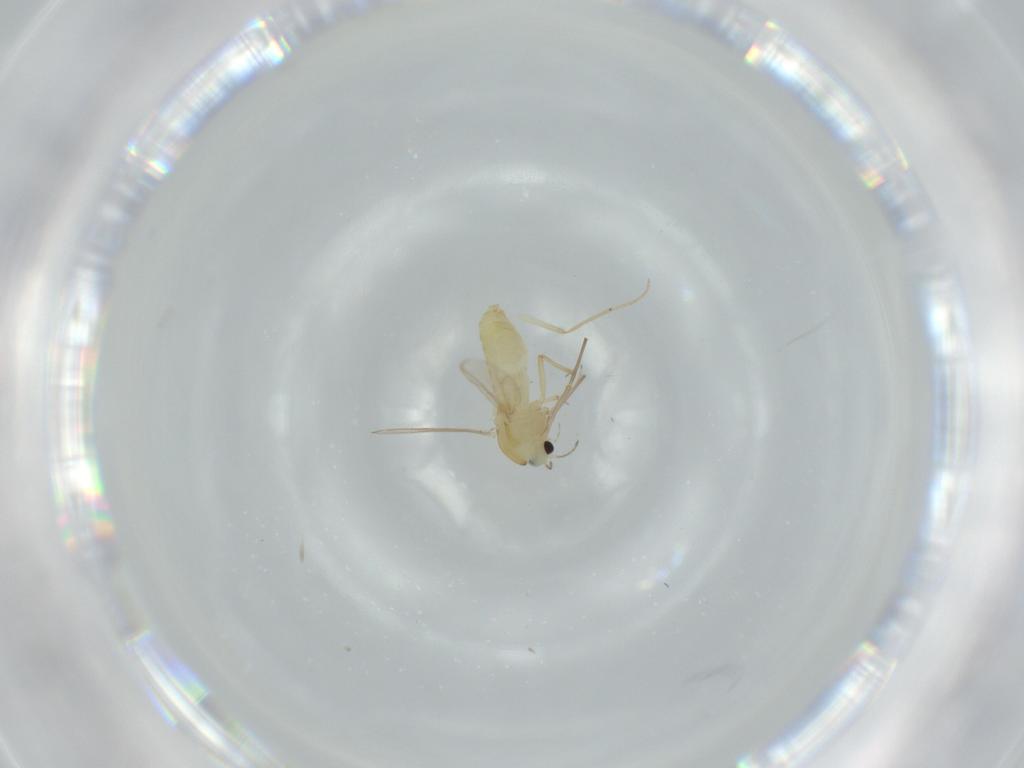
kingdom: Animalia
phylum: Arthropoda
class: Insecta
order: Diptera
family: Chironomidae
